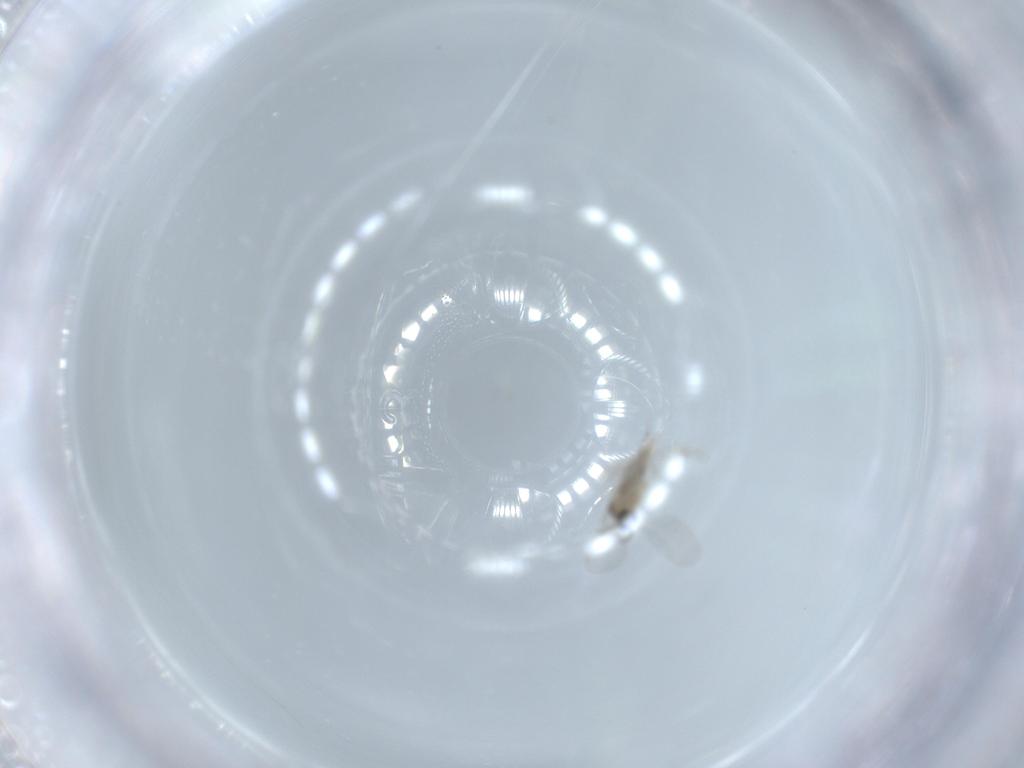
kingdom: Animalia
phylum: Arthropoda
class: Insecta
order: Diptera
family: Cecidomyiidae
